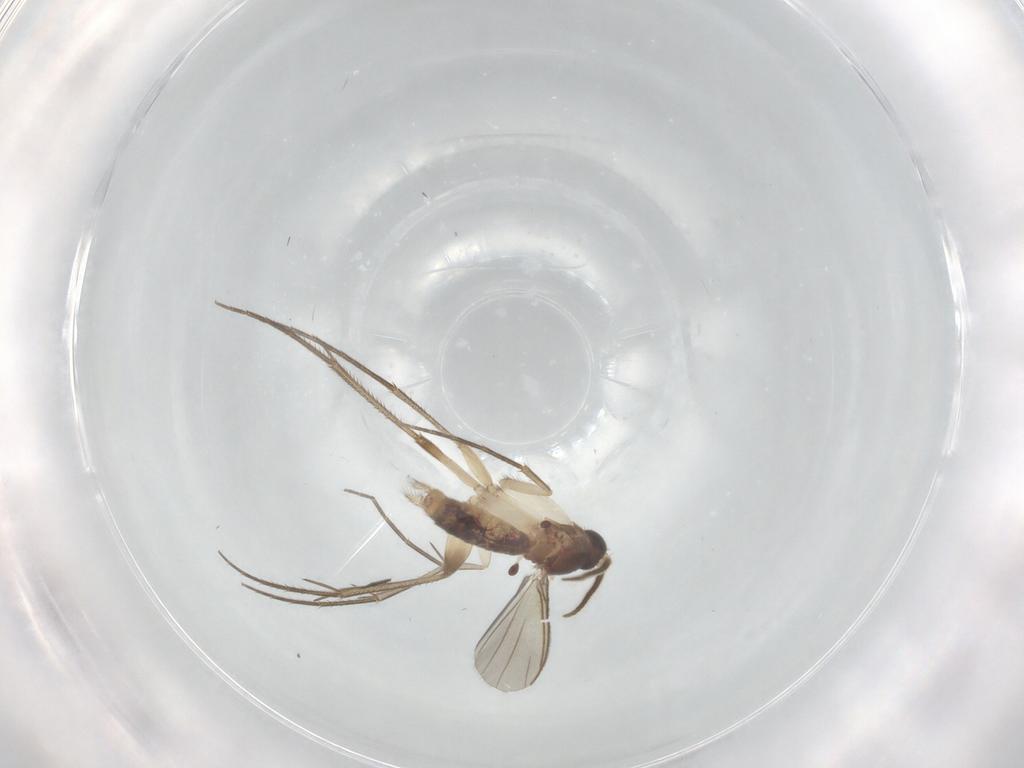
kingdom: Animalia
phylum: Arthropoda
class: Insecta
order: Diptera
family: Mycetophilidae
